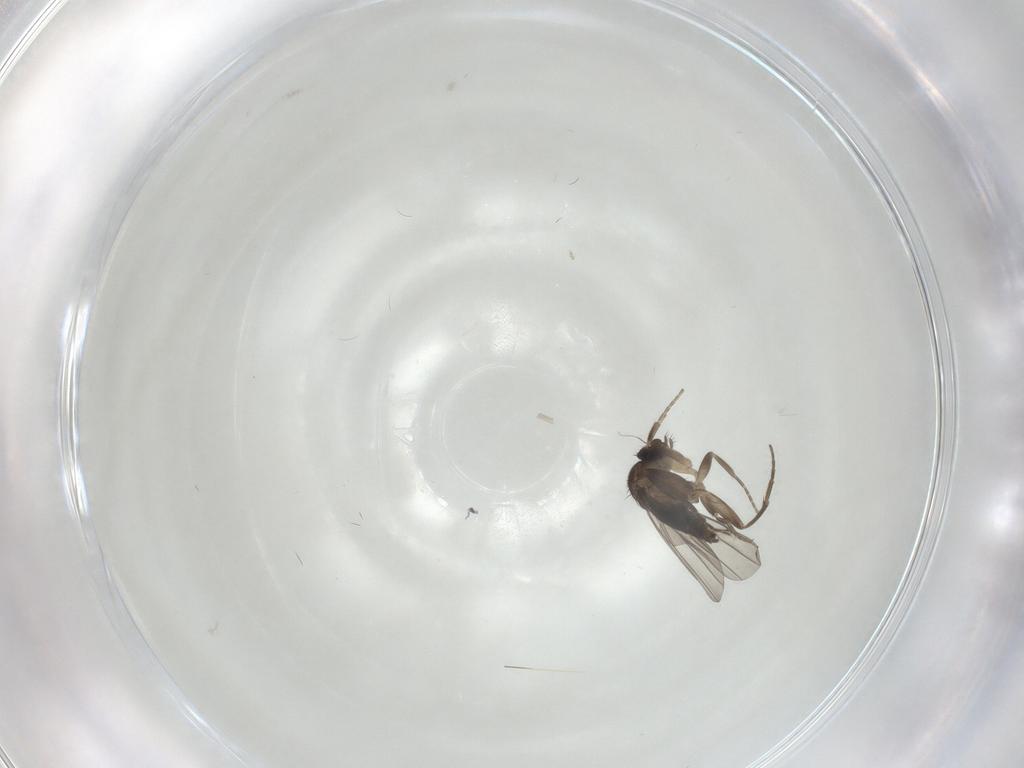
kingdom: Animalia
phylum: Arthropoda
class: Insecta
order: Diptera
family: Phoridae
